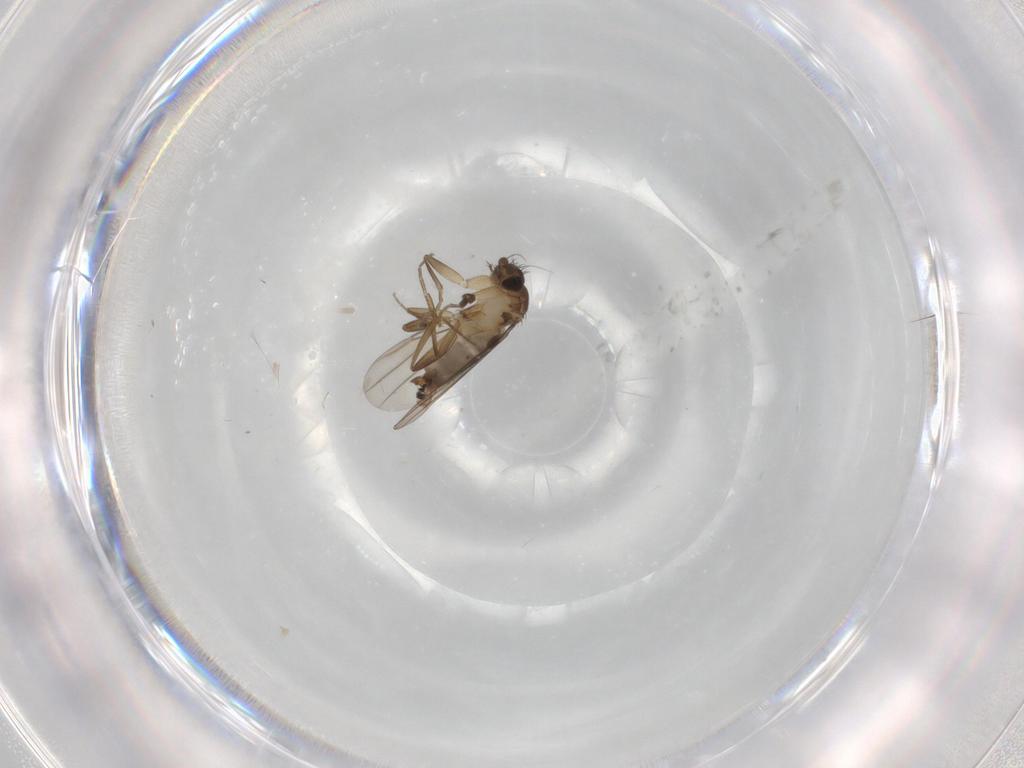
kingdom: Animalia
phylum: Arthropoda
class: Insecta
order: Diptera
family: Phoridae
